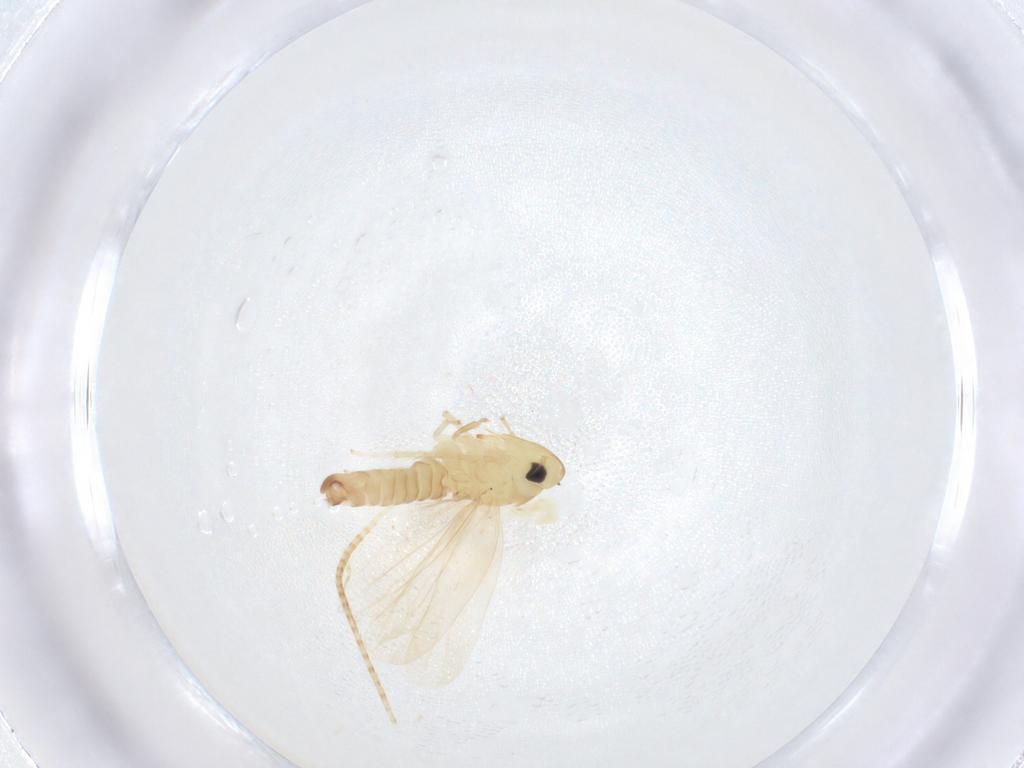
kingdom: Animalia
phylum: Arthropoda
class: Insecta
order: Hemiptera
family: Cicadellidae
